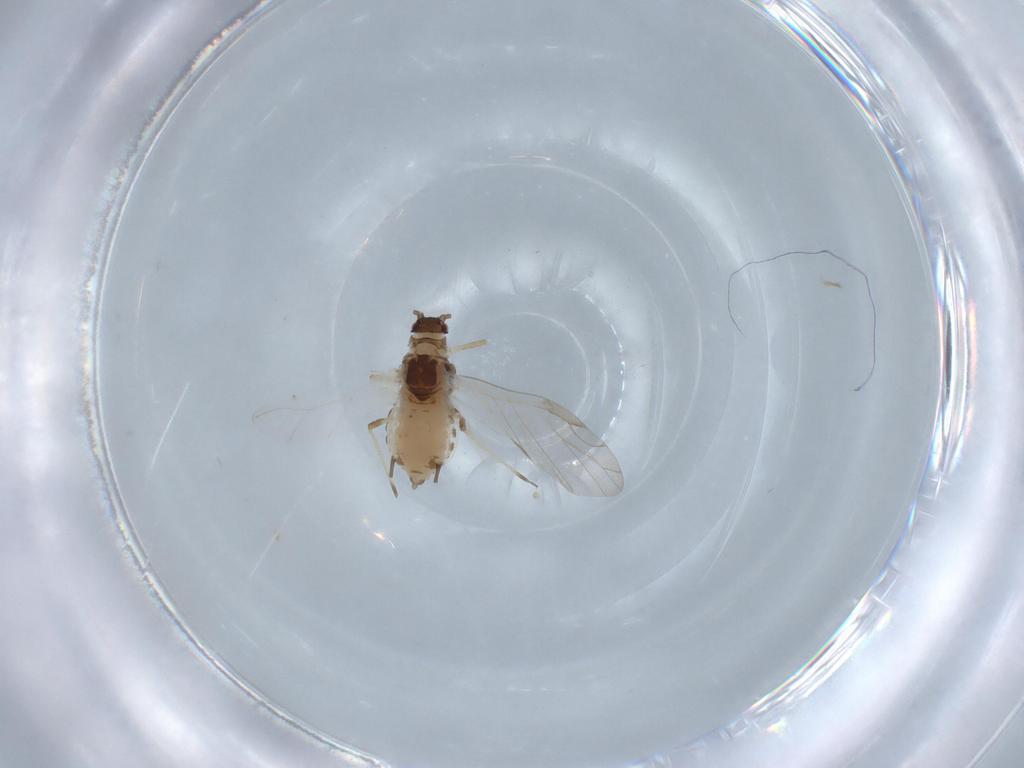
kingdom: Animalia
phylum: Arthropoda
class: Insecta
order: Hemiptera
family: Aphididae
